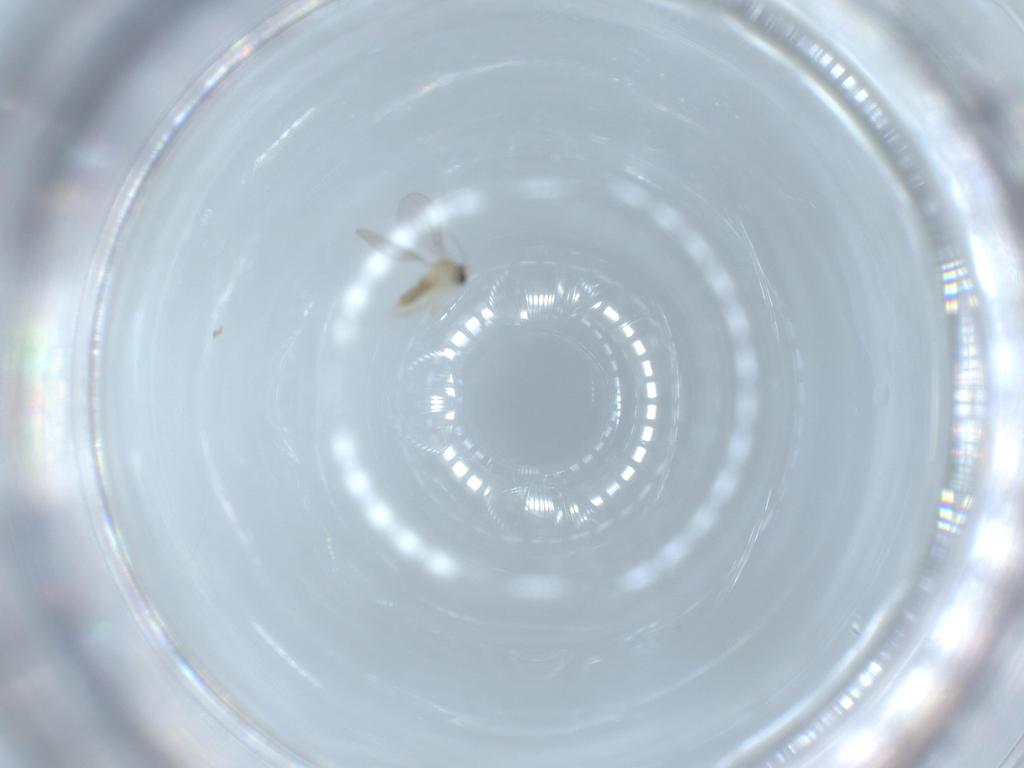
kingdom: Animalia
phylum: Arthropoda
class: Insecta
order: Diptera
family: Cecidomyiidae
